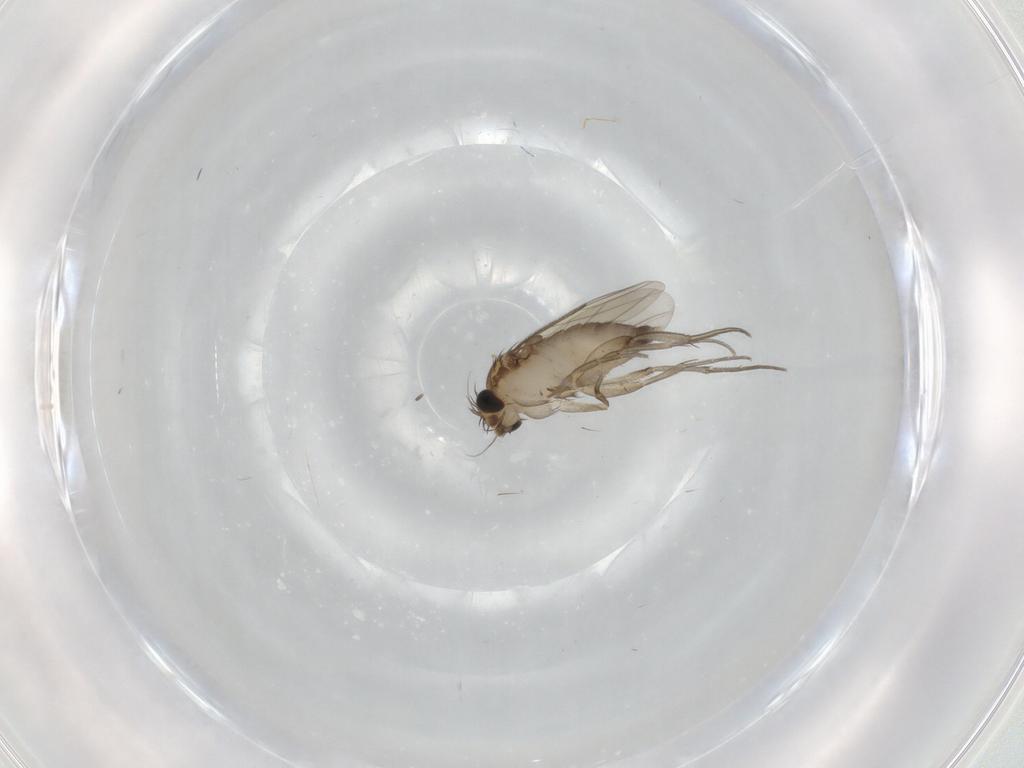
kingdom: Animalia
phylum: Arthropoda
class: Insecta
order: Diptera
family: Phoridae
